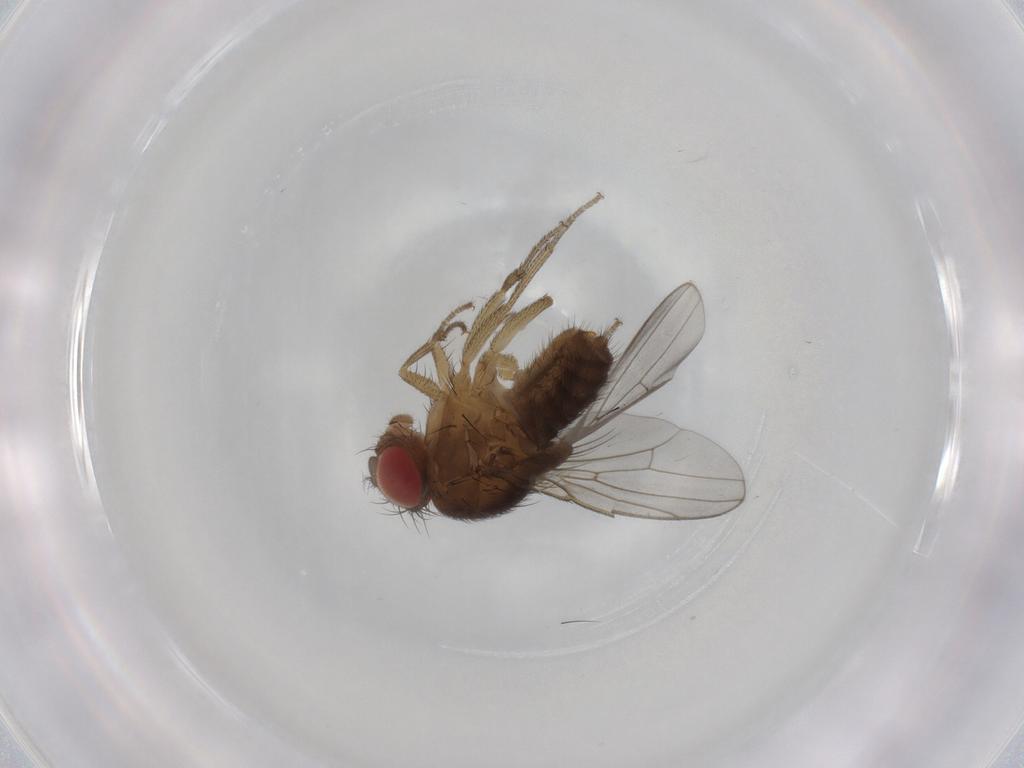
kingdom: Animalia
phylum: Arthropoda
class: Insecta
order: Diptera
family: Drosophilidae
